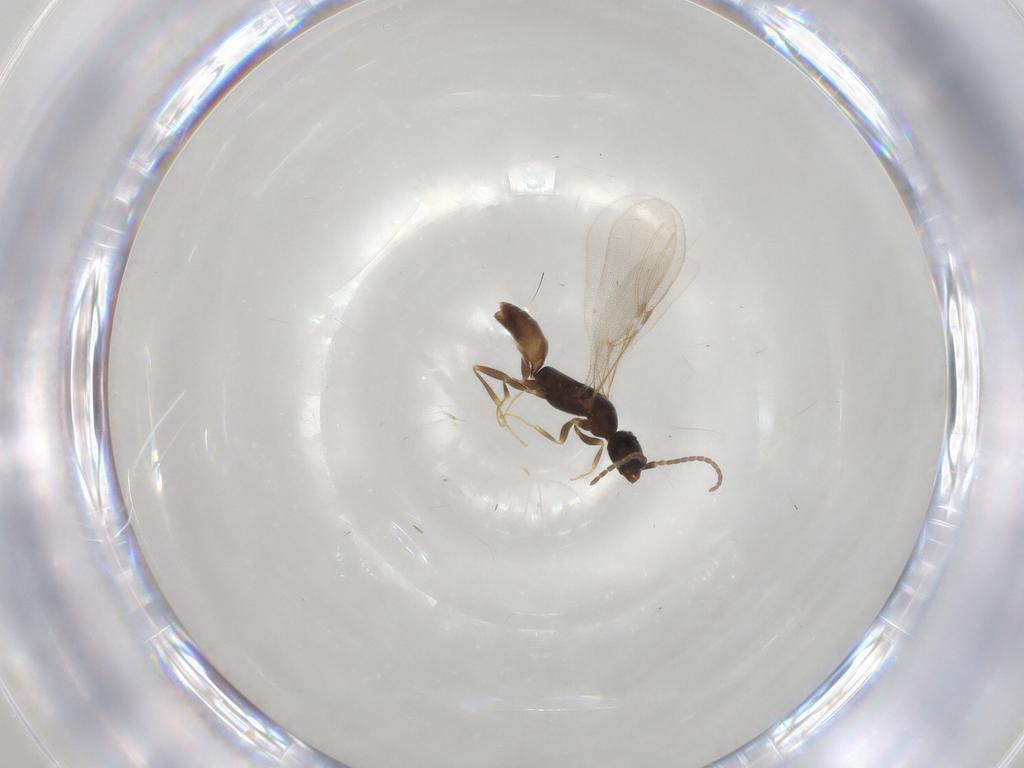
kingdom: Animalia
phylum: Arthropoda
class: Insecta
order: Hymenoptera
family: Bethylidae
